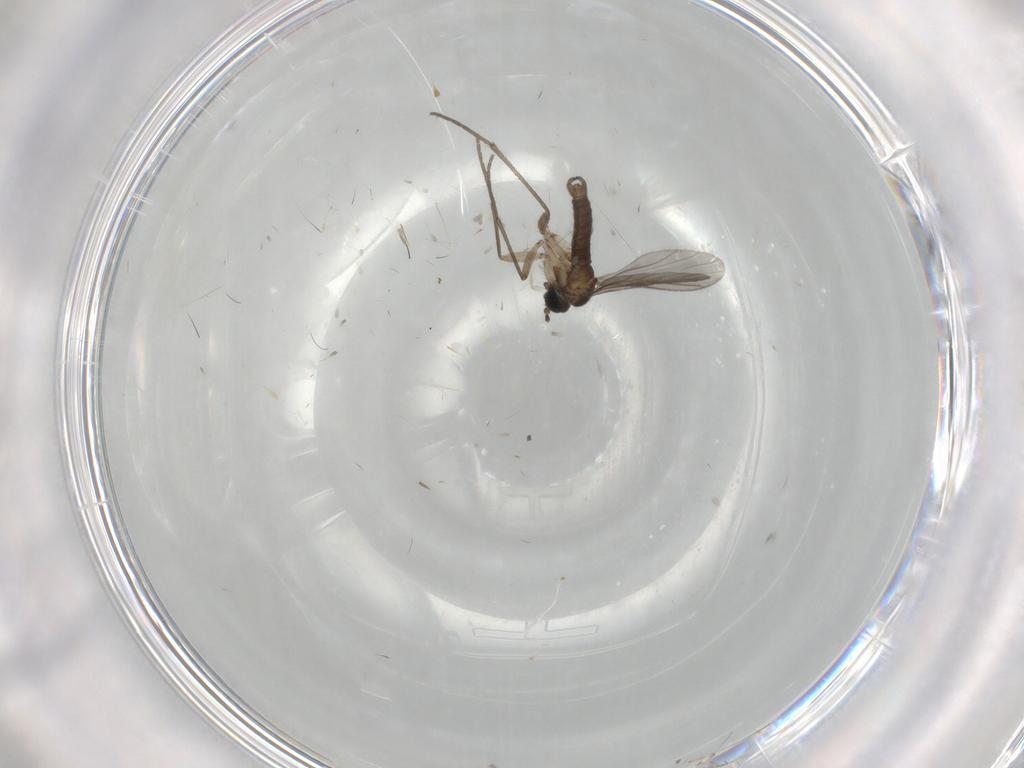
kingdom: Animalia
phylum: Arthropoda
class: Insecta
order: Diptera
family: Sciaridae
